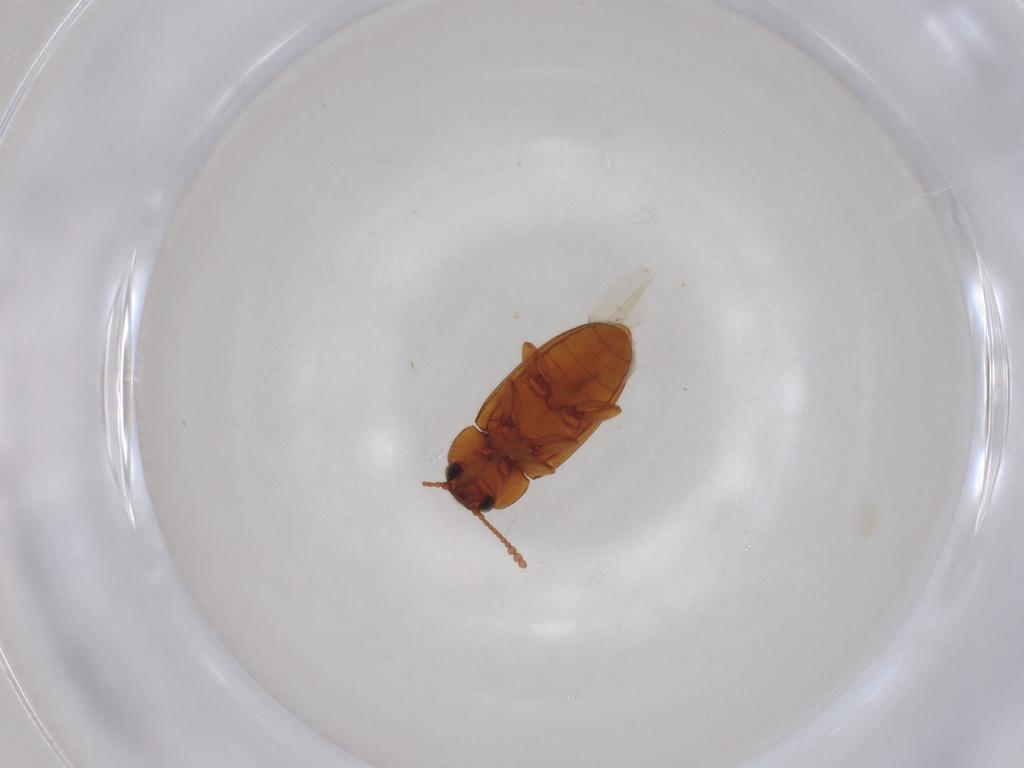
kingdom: Animalia
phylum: Arthropoda
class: Insecta
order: Coleoptera
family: Erotylidae
